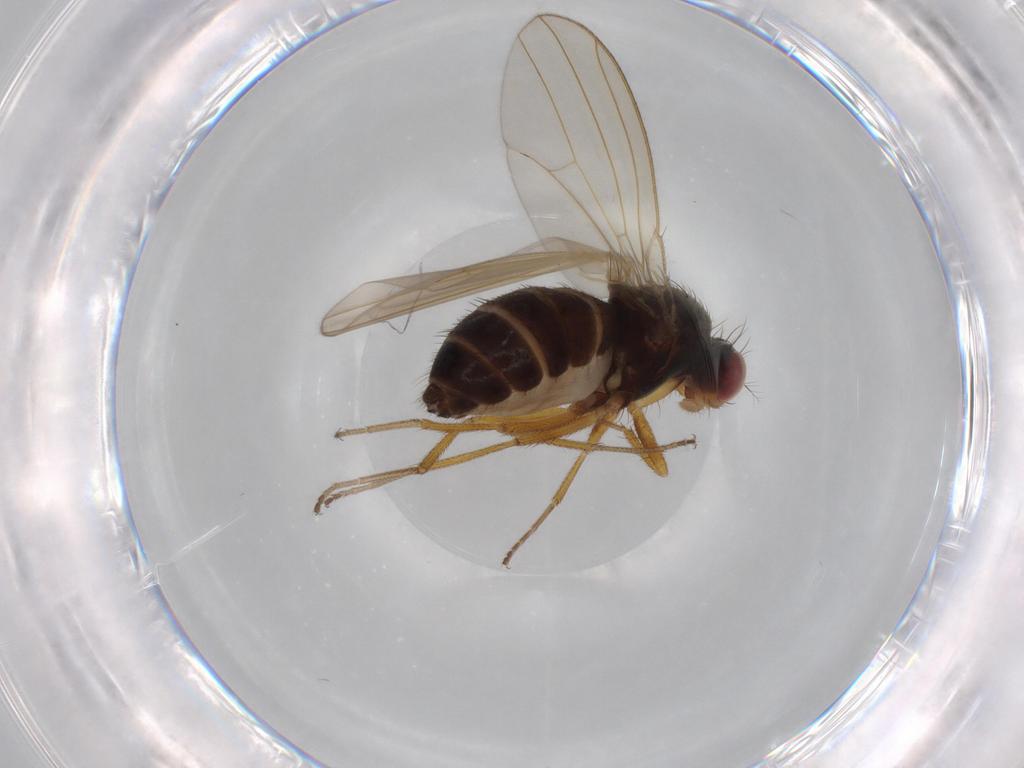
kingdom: Animalia
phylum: Arthropoda
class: Insecta
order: Diptera
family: Drosophilidae
